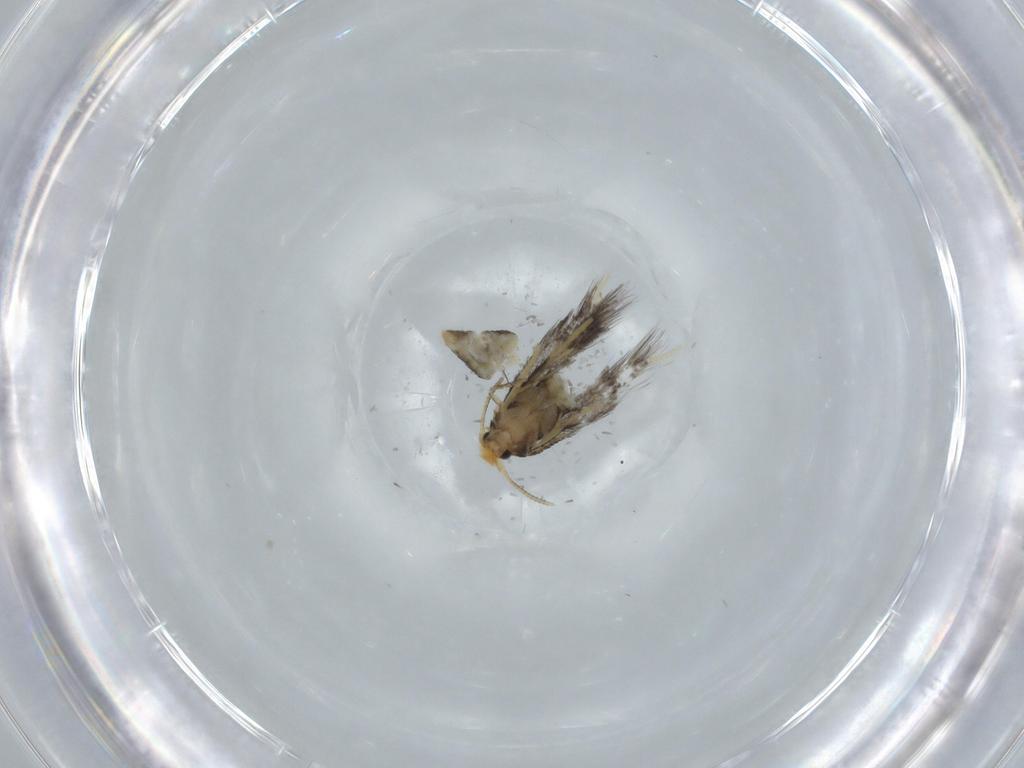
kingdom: Animalia
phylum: Arthropoda
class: Insecta
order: Lepidoptera
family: Nepticulidae
